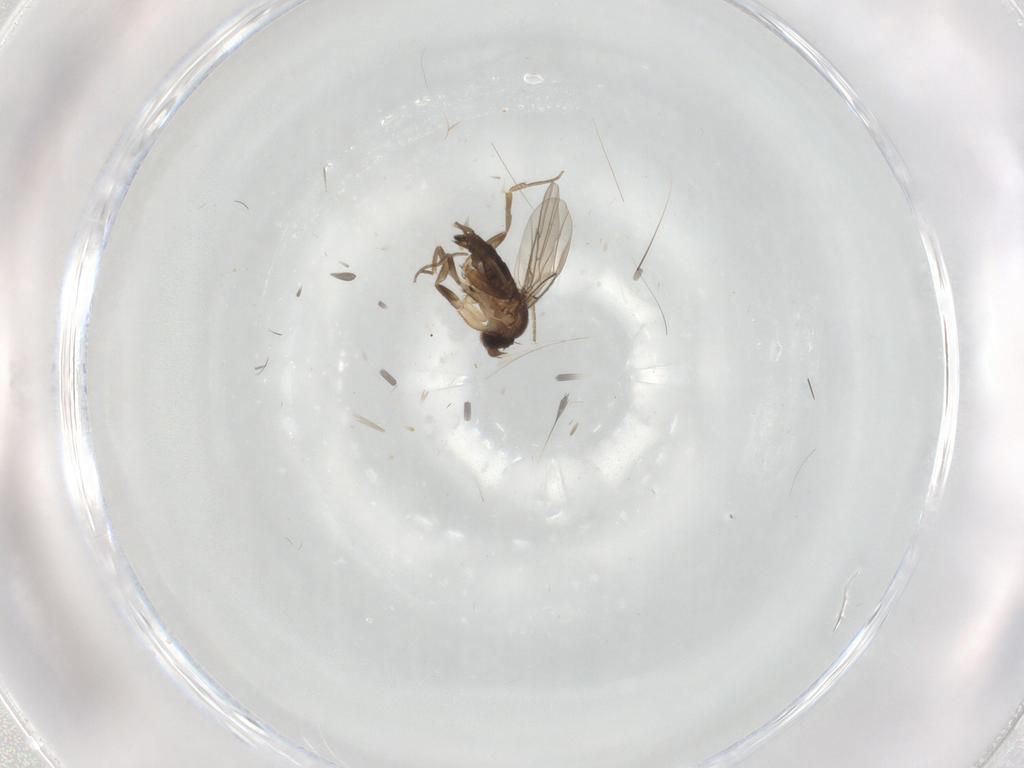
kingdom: Animalia
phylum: Arthropoda
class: Insecta
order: Diptera
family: Phoridae
